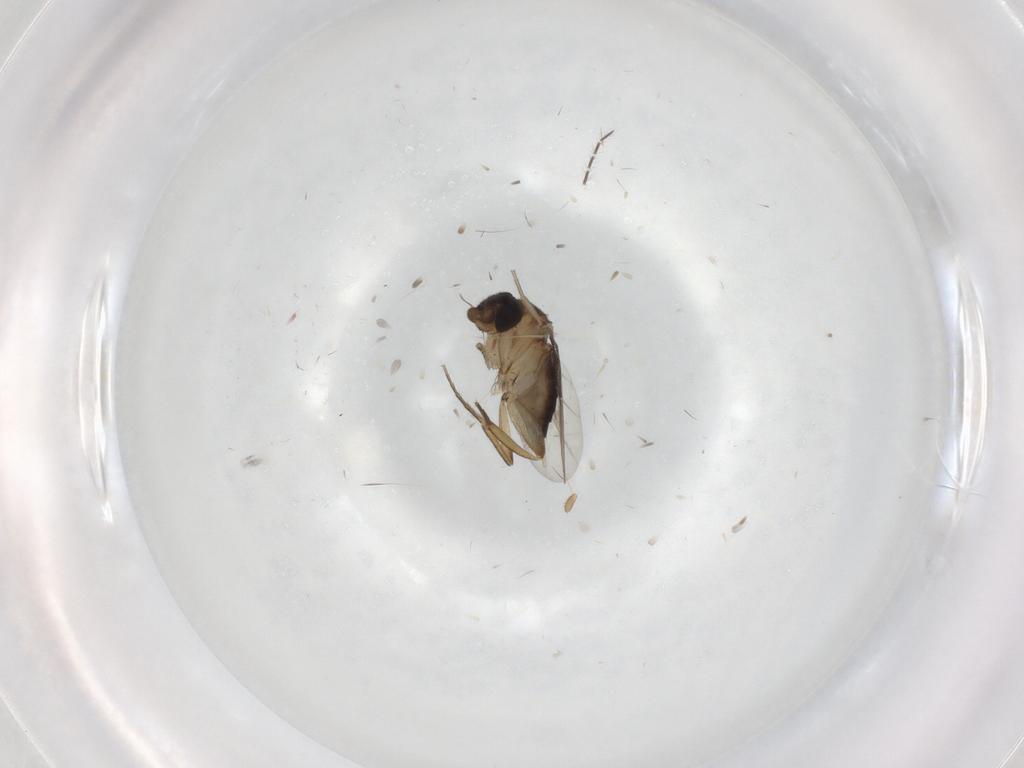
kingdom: Animalia
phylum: Arthropoda
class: Insecta
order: Diptera
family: Phoridae
